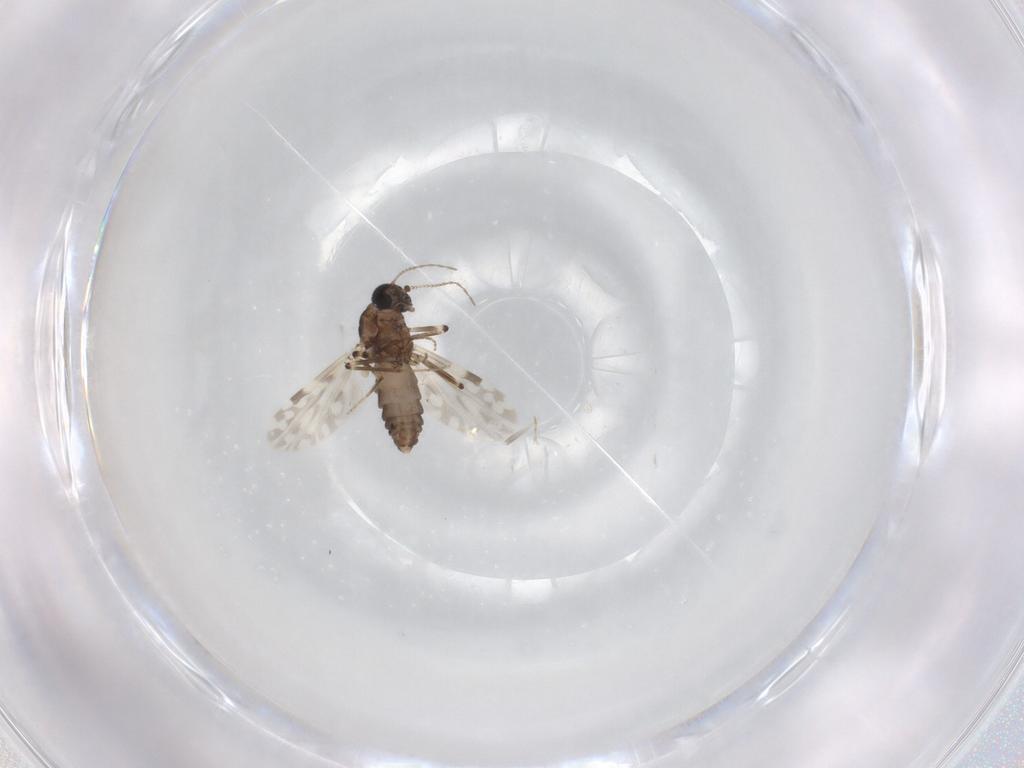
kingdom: Animalia
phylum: Arthropoda
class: Insecta
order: Diptera
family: Ceratopogonidae
